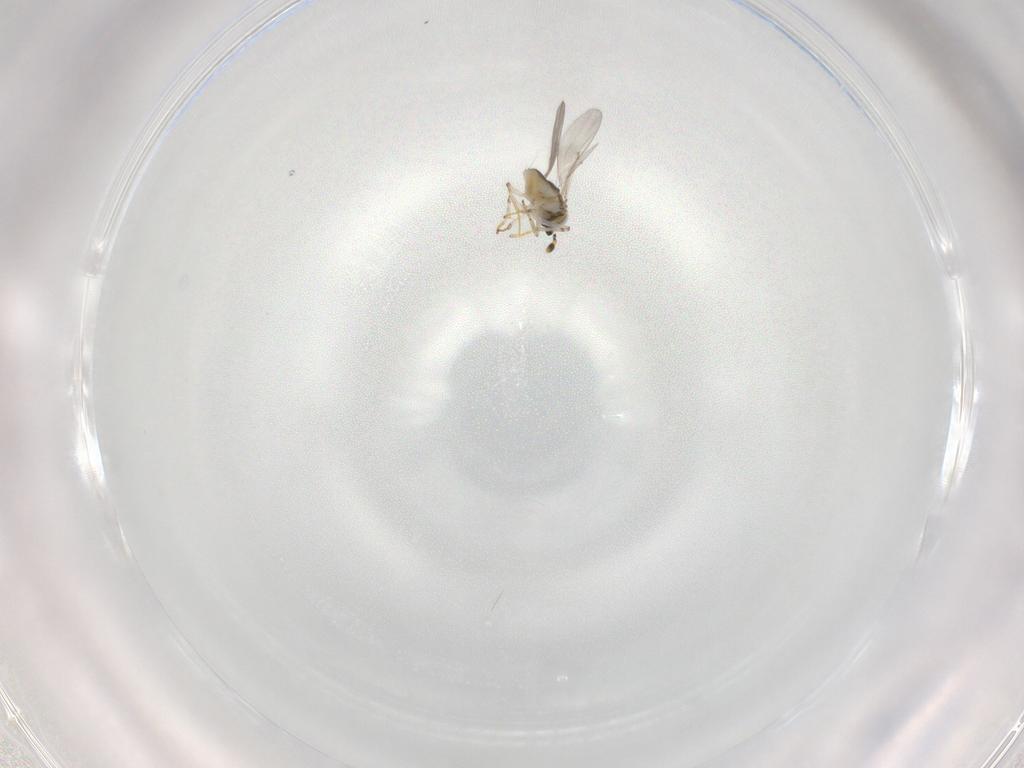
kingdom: Animalia
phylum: Arthropoda
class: Insecta
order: Hymenoptera
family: Encyrtidae
